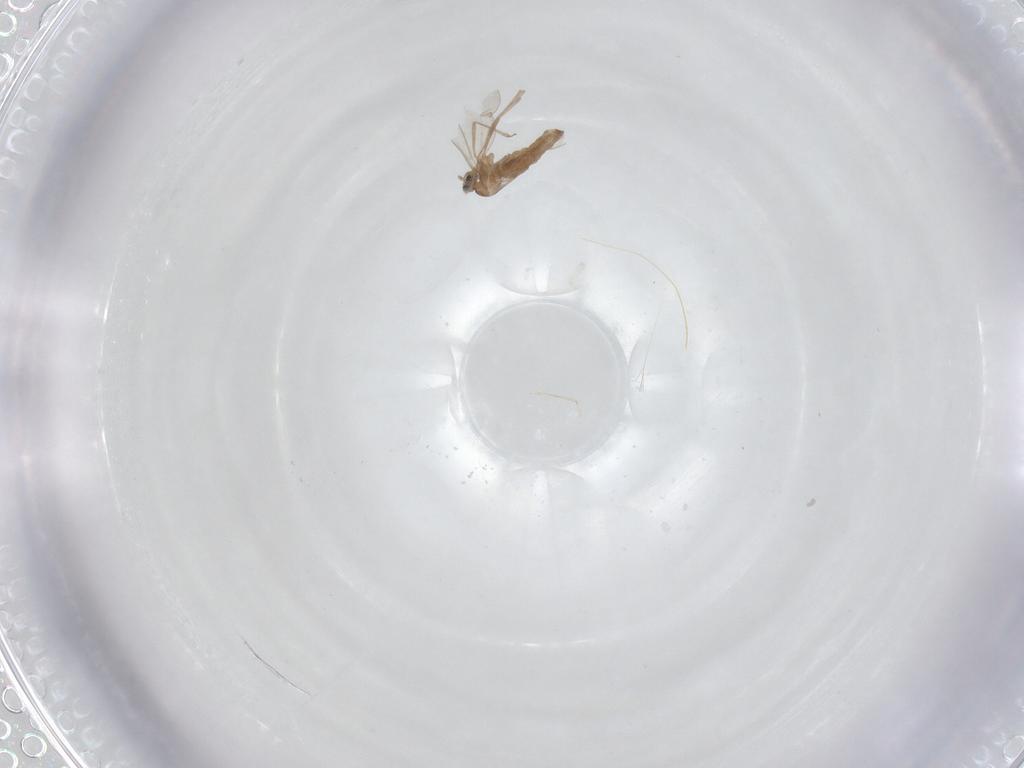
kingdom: Animalia
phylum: Arthropoda
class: Insecta
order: Diptera
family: Cecidomyiidae
